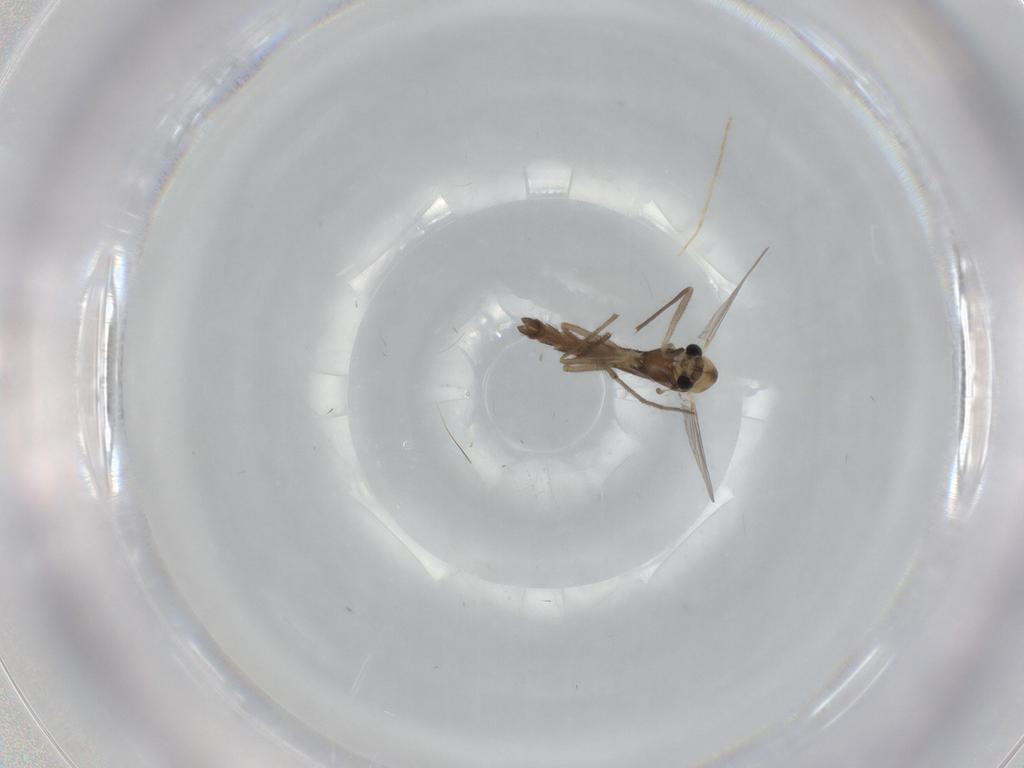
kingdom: Animalia
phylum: Arthropoda
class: Insecta
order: Diptera
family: Chironomidae
